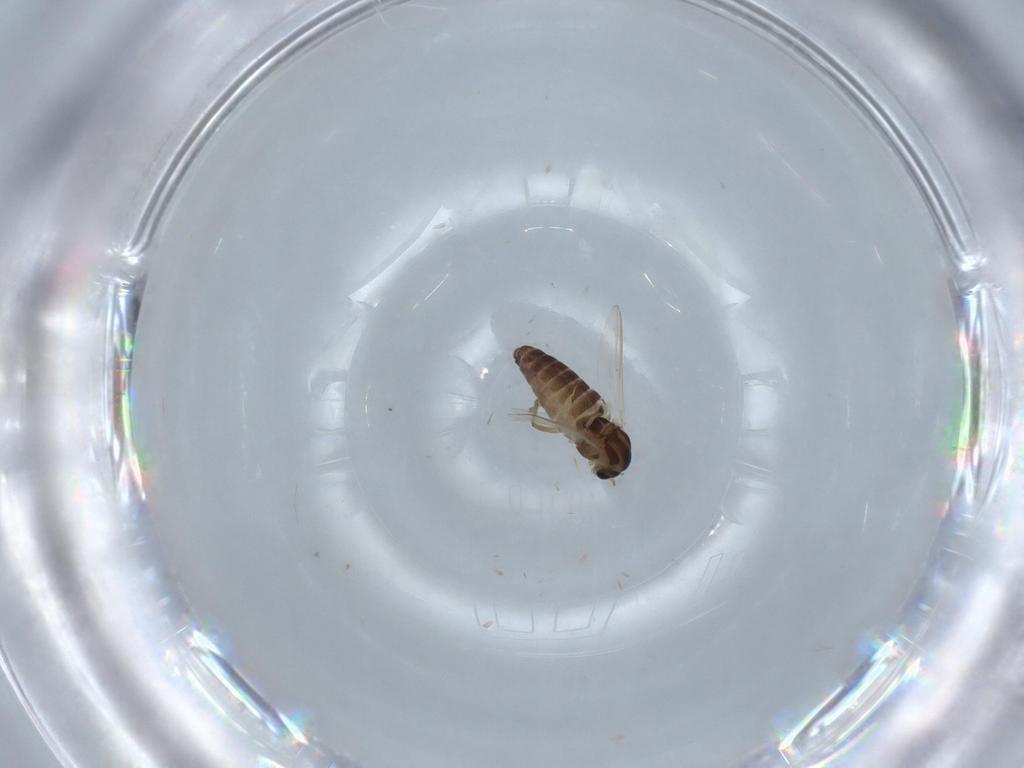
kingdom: Animalia
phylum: Arthropoda
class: Insecta
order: Diptera
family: Chironomidae
